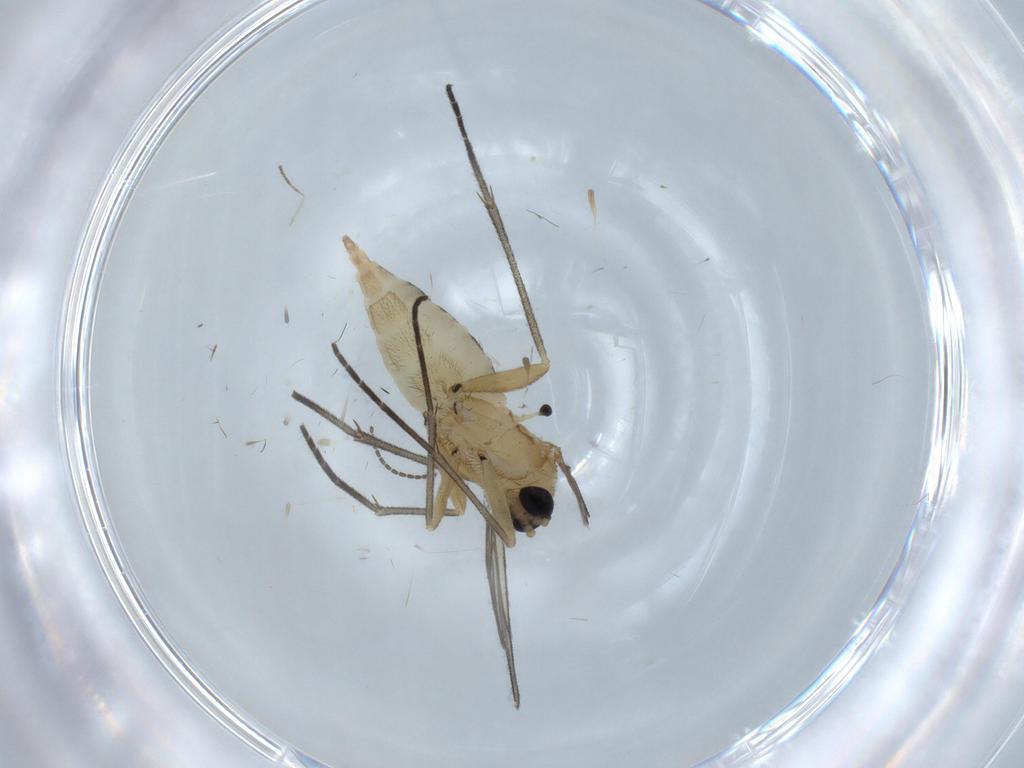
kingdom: Animalia
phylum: Arthropoda
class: Insecta
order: Diptera
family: Sciaridae
